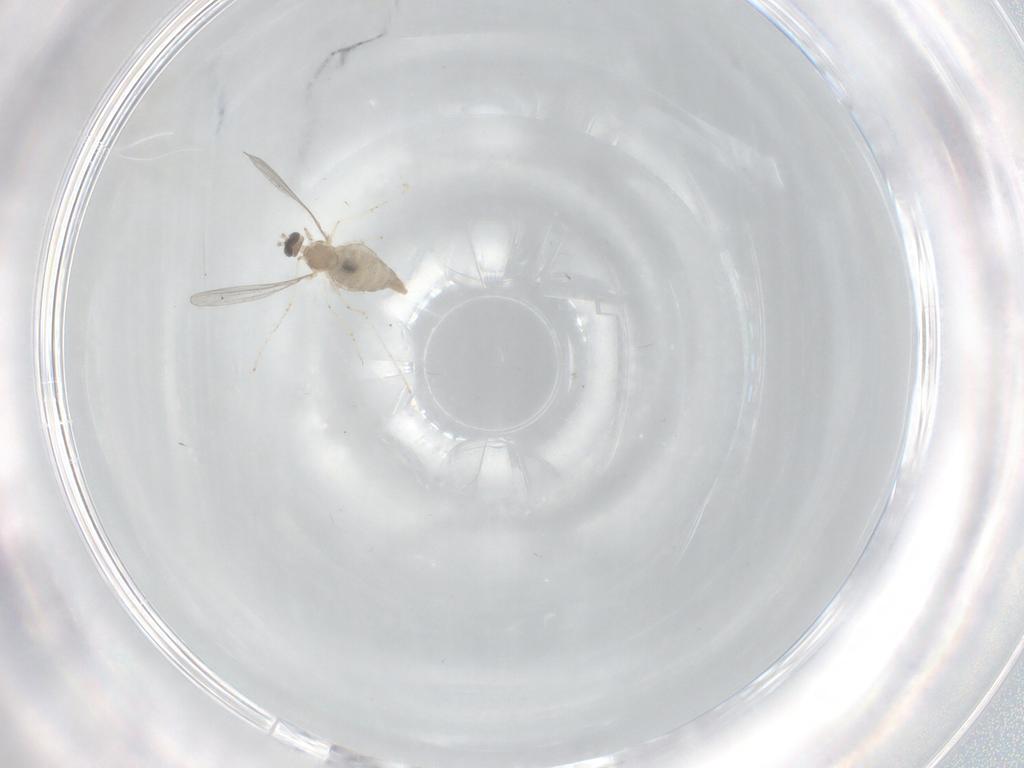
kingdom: Animalia
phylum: Arthropoda
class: Insecta
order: Diptera
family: Cecidomyiidae
